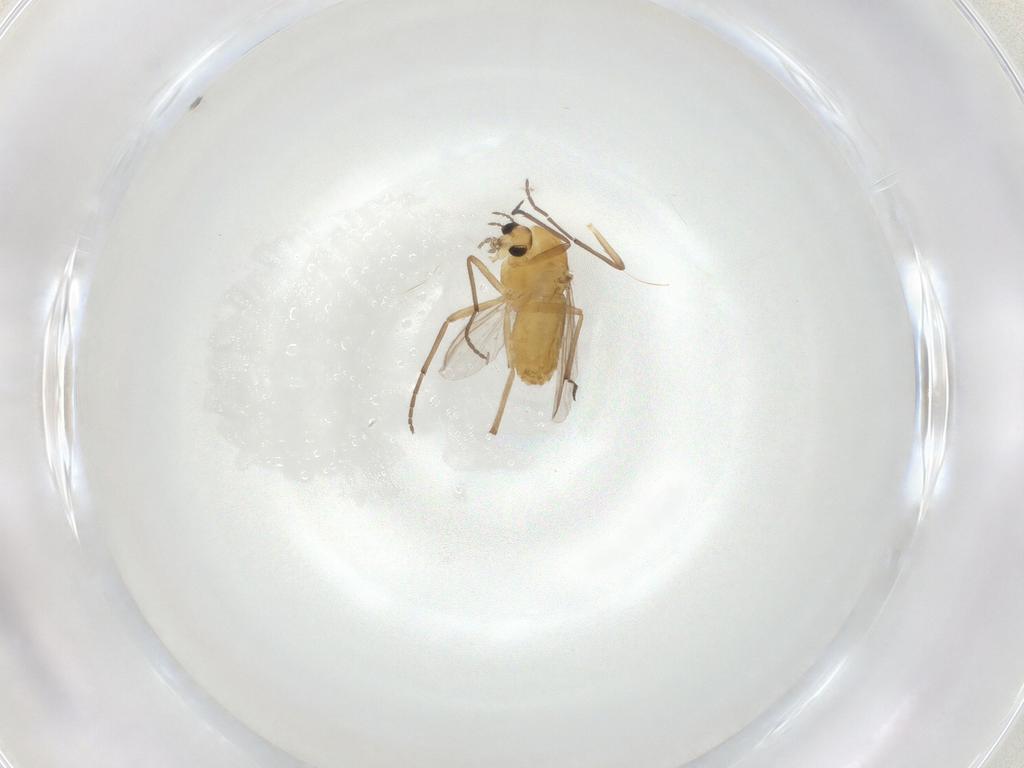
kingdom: Animalia
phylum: Arthropoda
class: Insecta
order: Diptera
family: Chironomidae
